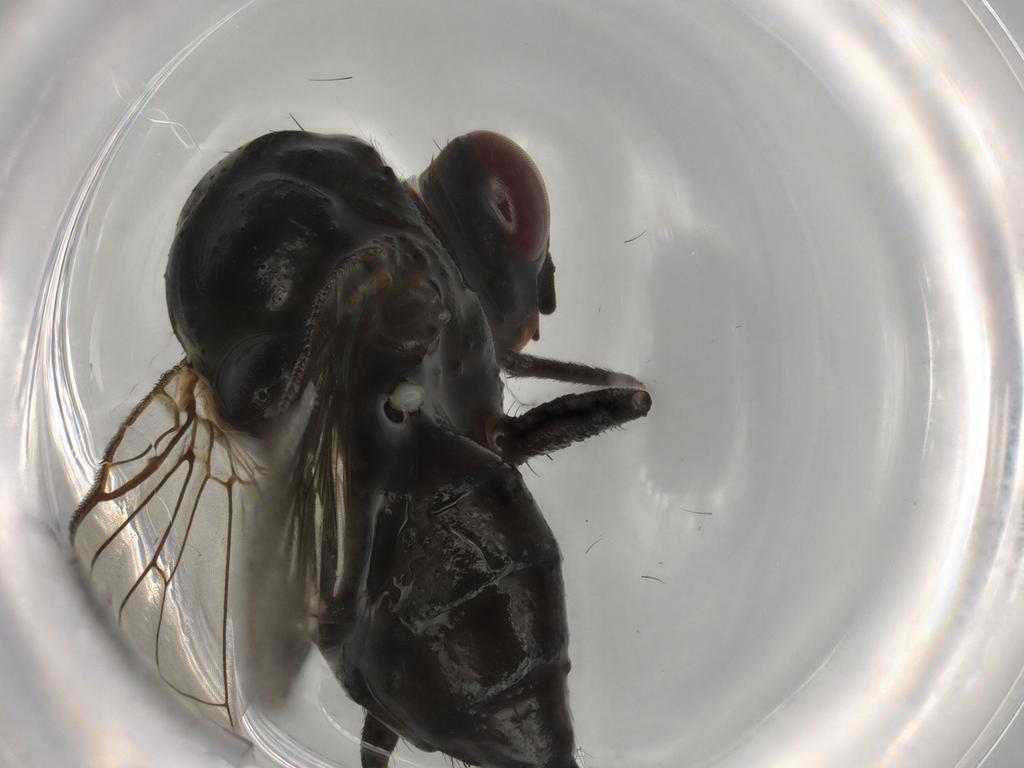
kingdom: Animalia
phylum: Arthropoda
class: Insecta
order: Diptera
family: Anthomyiidae
